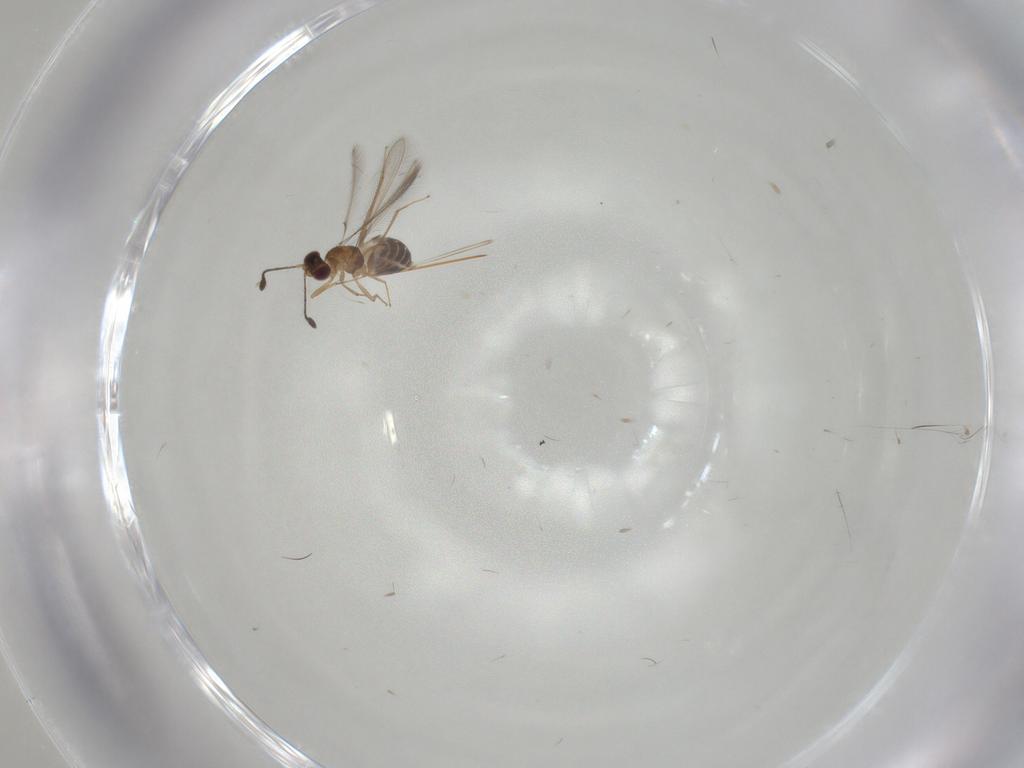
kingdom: Animalia
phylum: Arthropoda
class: Insecta
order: Hymenoptera
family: Mymaridae
